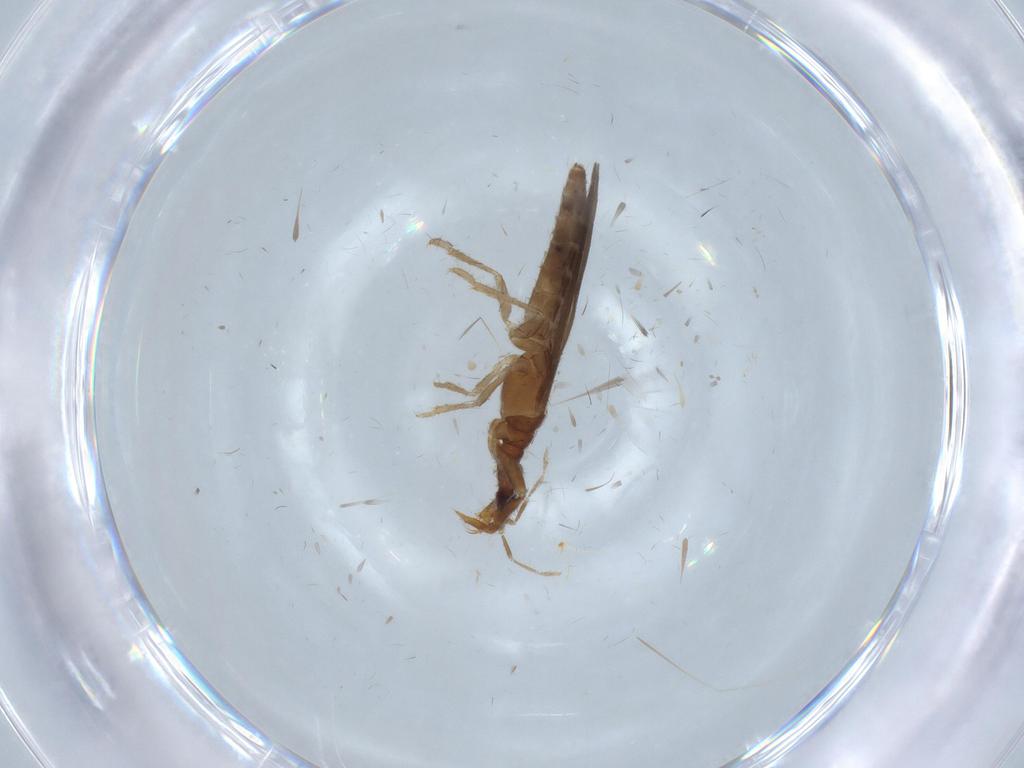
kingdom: Animalia
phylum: Arthropoda
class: Insecta
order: Hemiptera
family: Enicocephalidae
